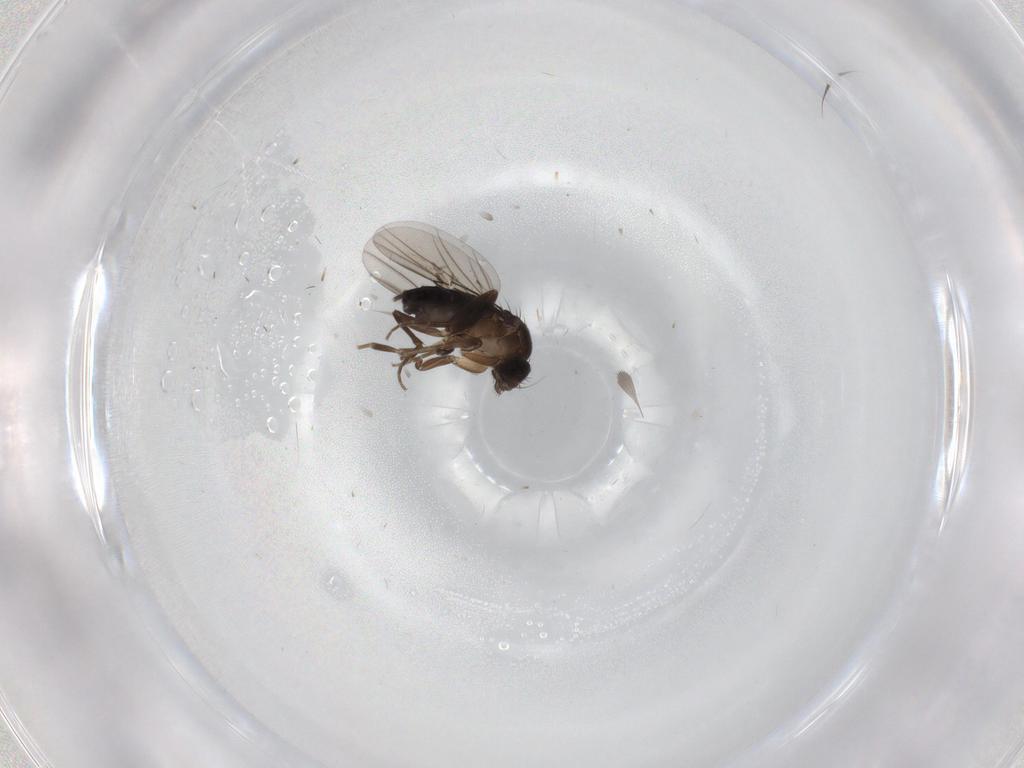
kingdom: Animalia
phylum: Arthropoda
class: Insecta
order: Diptera
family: Phoridae
